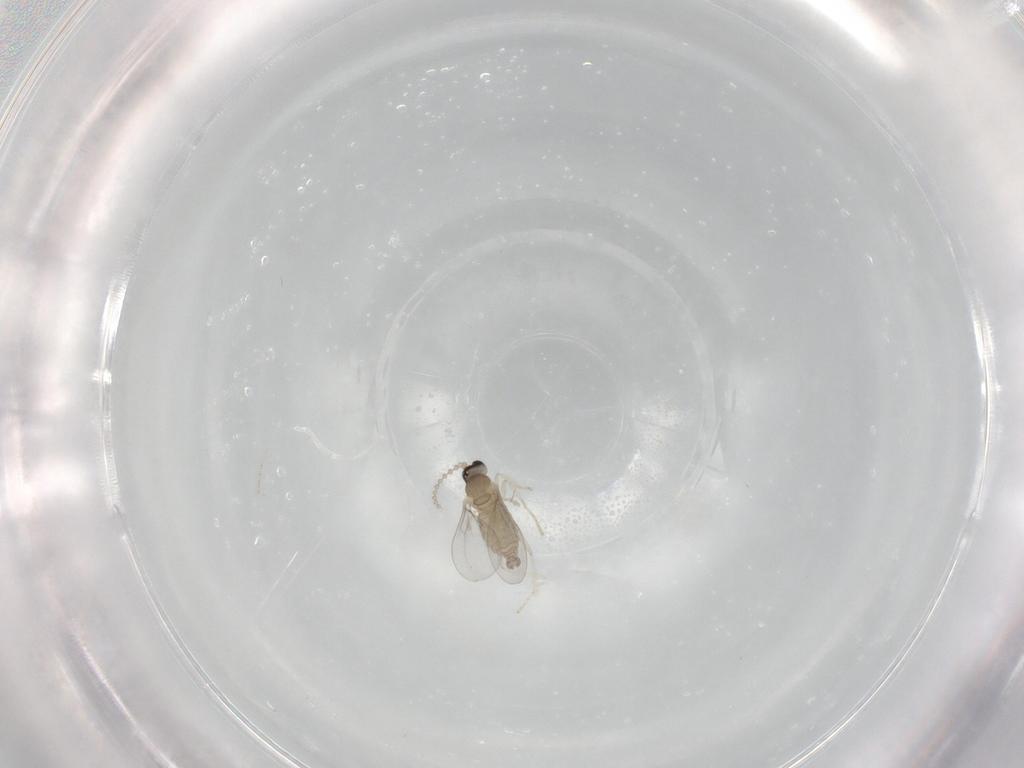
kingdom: Animalia
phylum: Arthropoda
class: Insecta
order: Diptera
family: Cecidomyiidae
